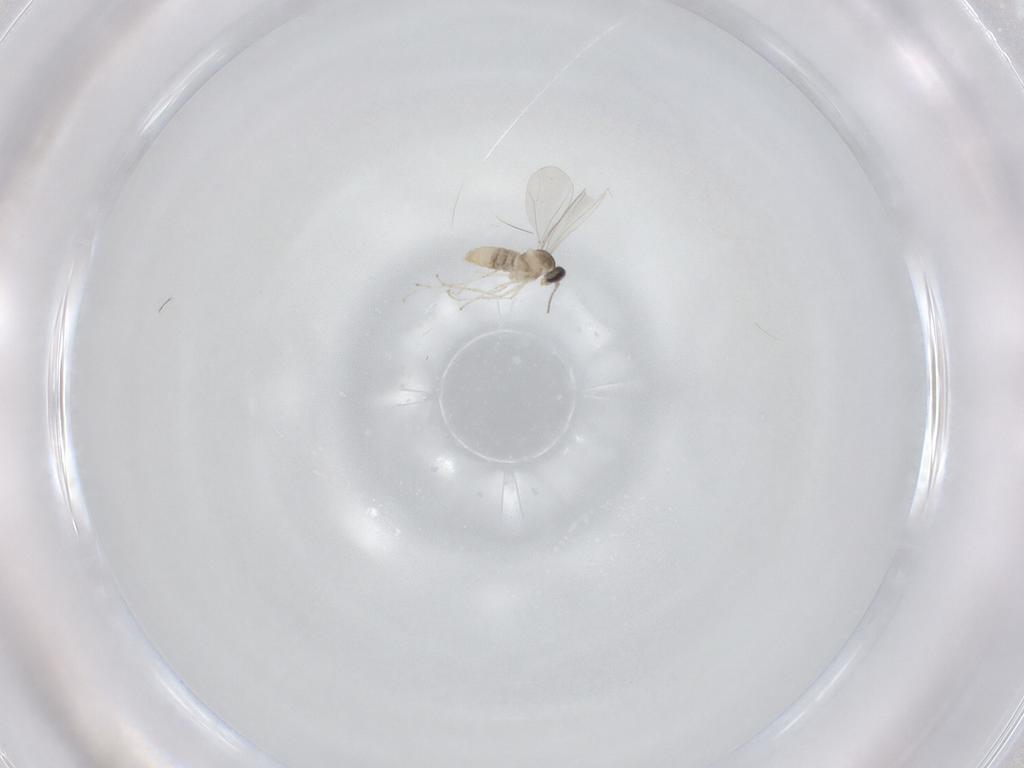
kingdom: Animalia
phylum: Arthropoda
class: Insecta
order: Diptera
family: Cecidomyiidae
